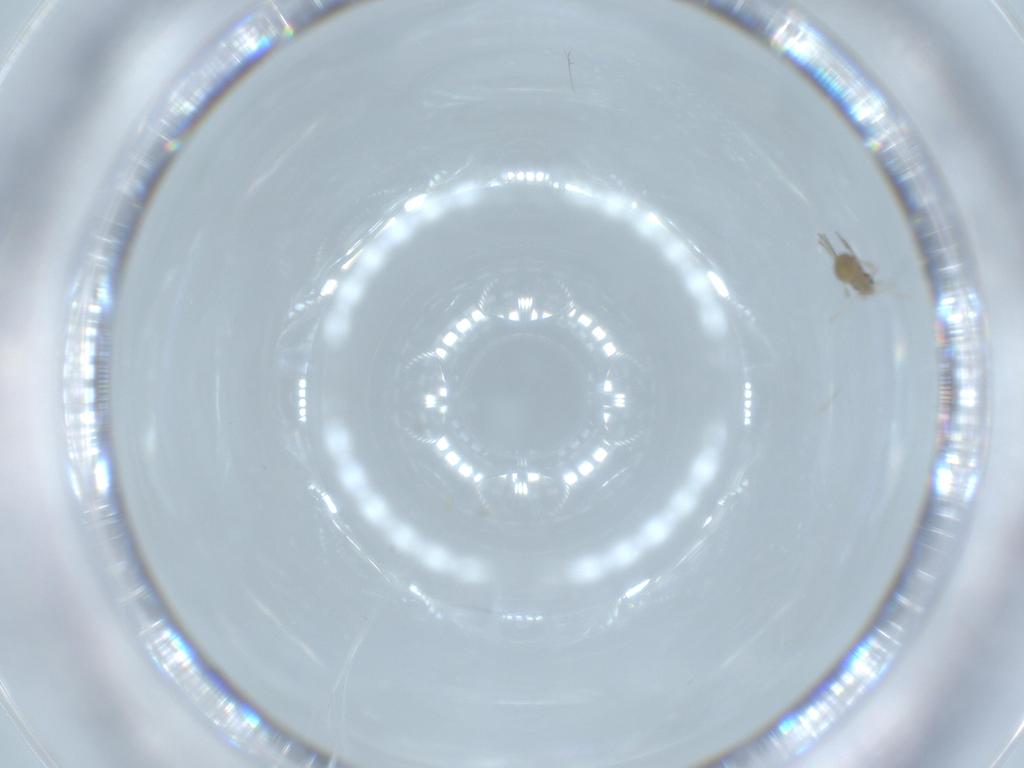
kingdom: Animalia
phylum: Arthropoda
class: Insecta
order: Diptera
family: Cecidomyiidae
